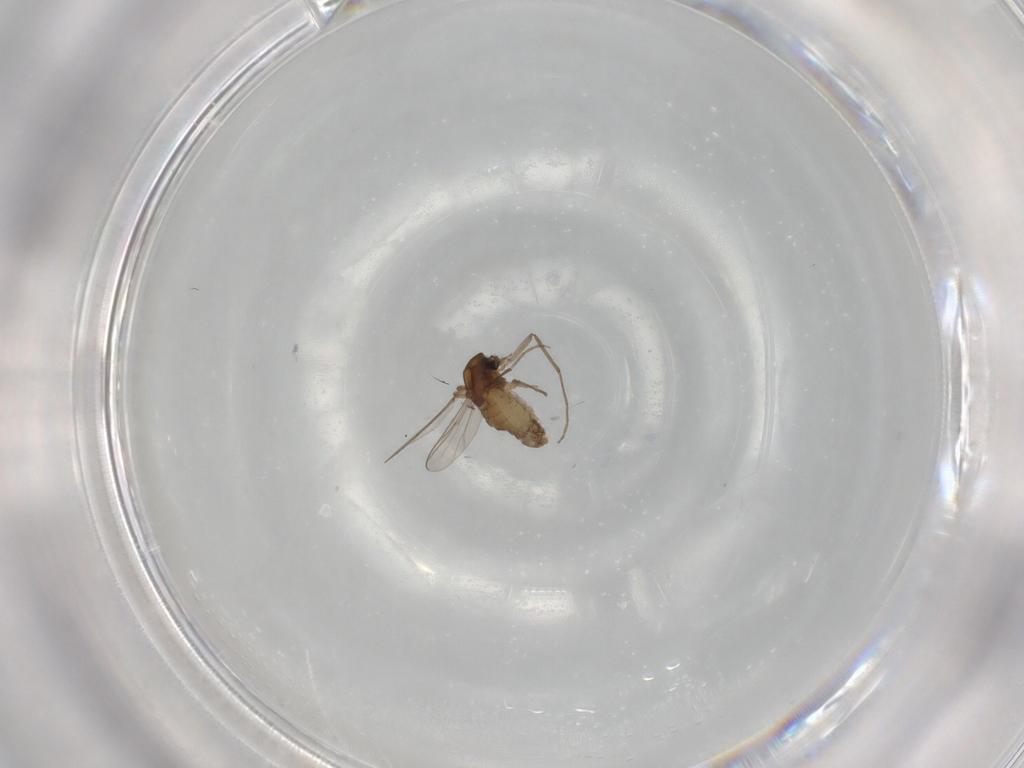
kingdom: Animalia
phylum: Arthropoda
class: Insecta
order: Diptera
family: Chironomidae
